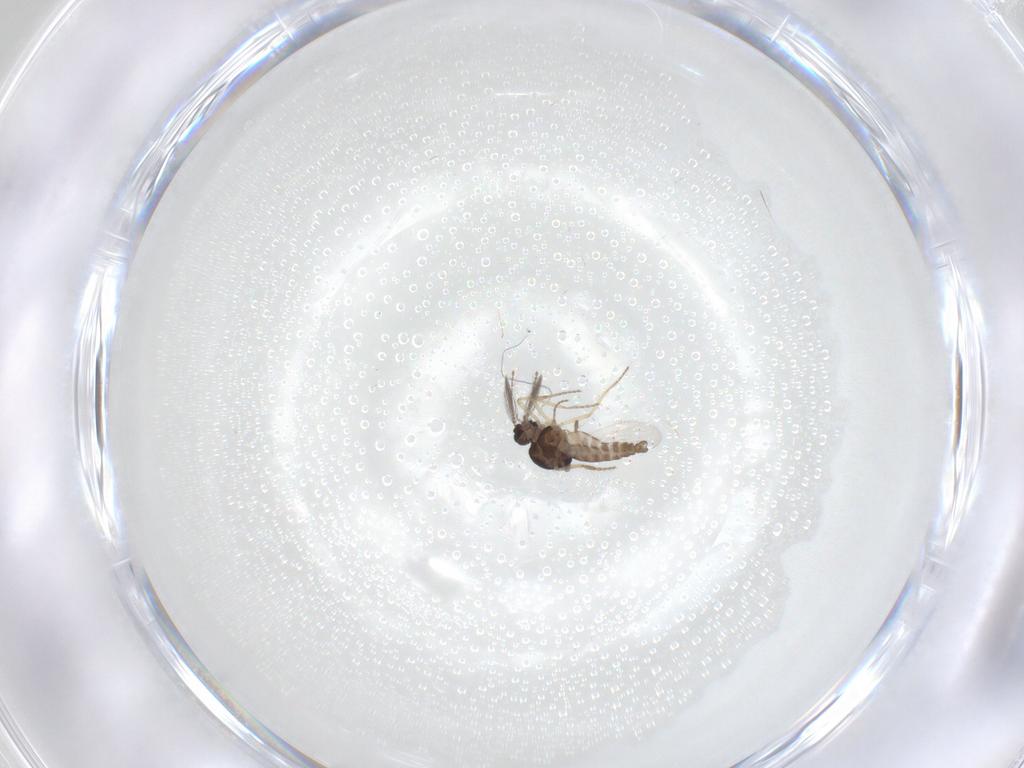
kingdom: Animalia
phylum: Arthropoda
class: Insecta
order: Diptera
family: Cecidomyiidae
